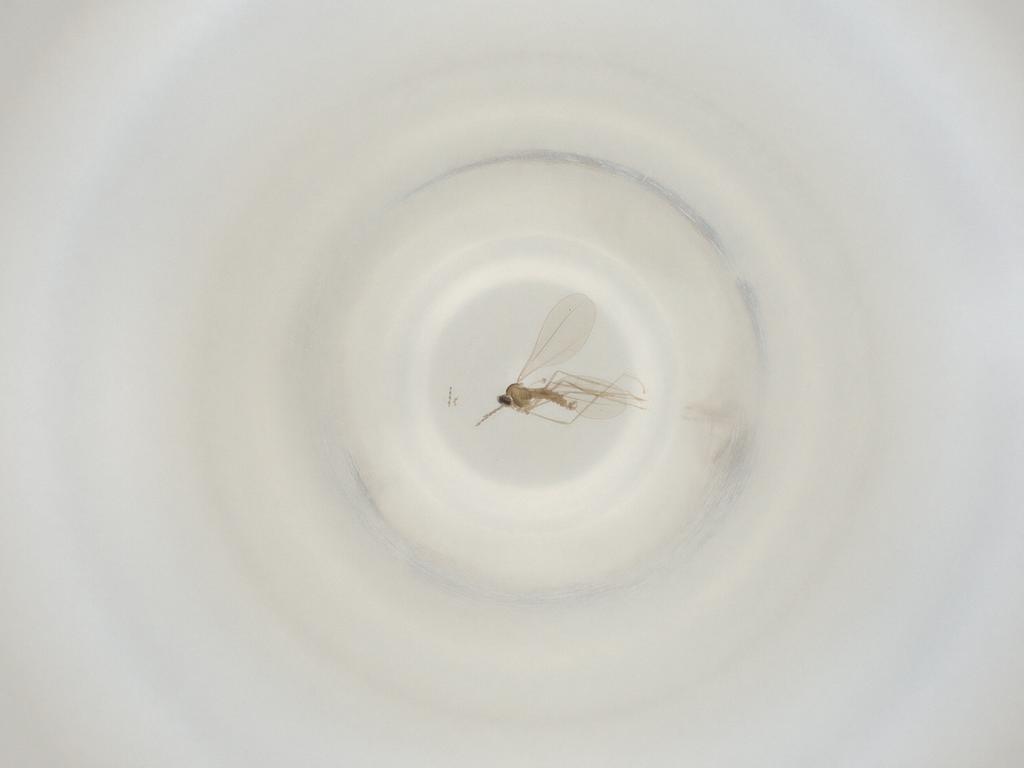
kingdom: Animalia
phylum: Arthropoda
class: Insecta
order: Diptera
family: Cecidomyiidae
